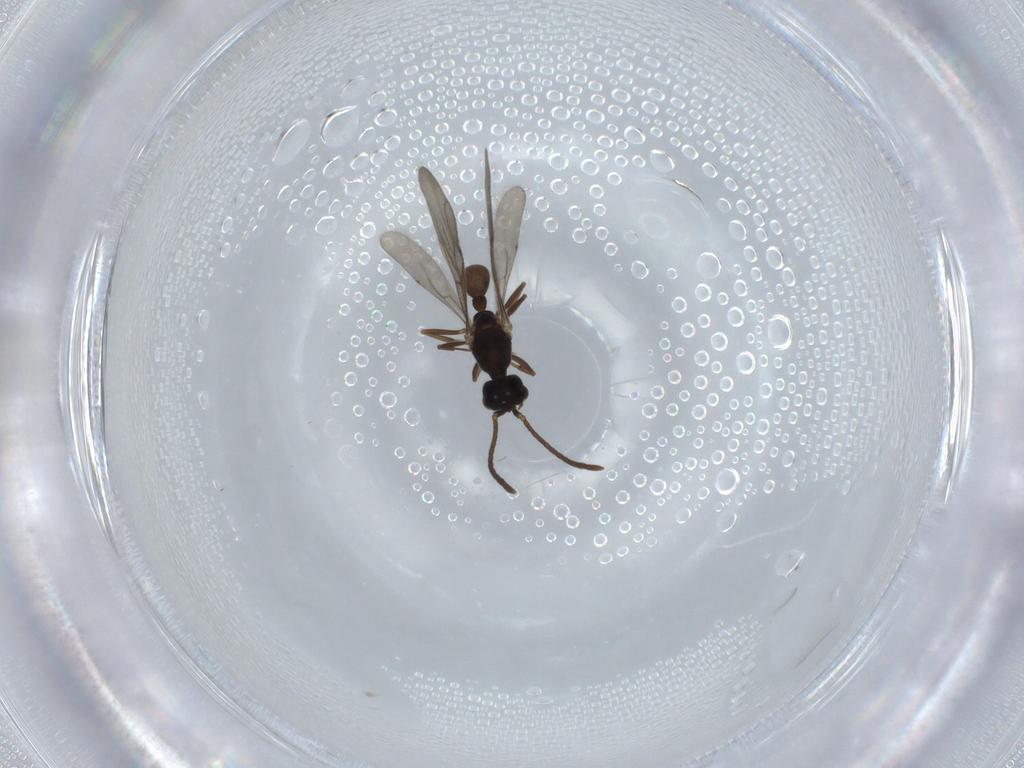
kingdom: Animalia
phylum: Arthropoda
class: Insecta
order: Hymenoptera
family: Formicidae
